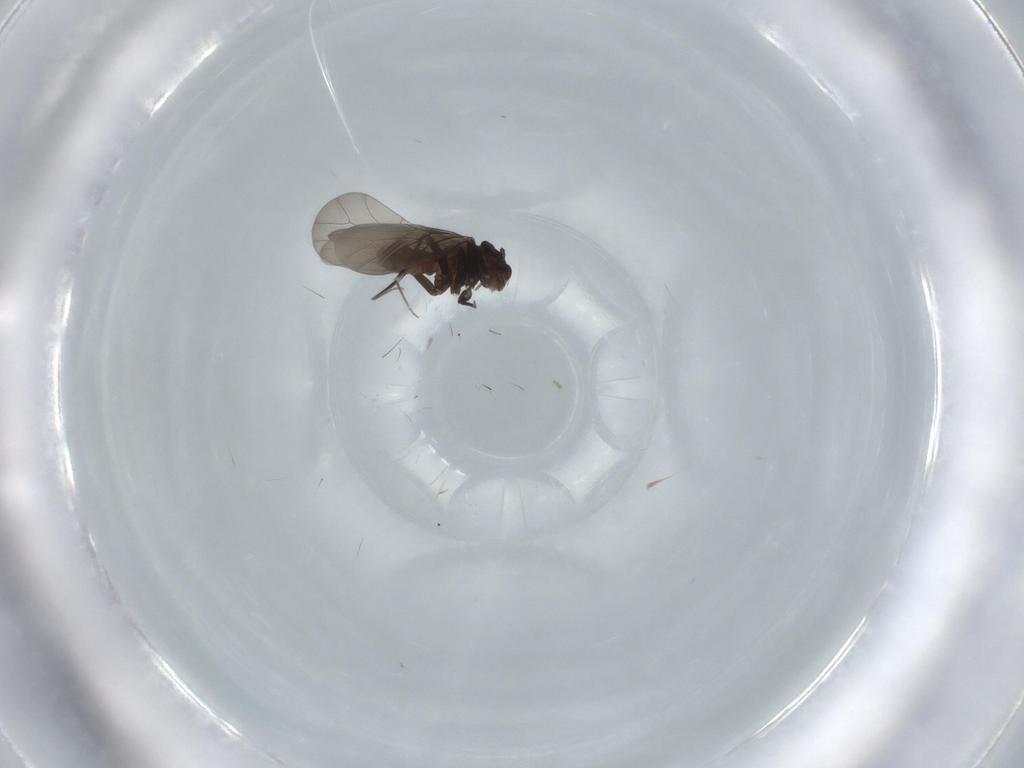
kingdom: Animalia
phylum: Arthropoda
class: Insecta
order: Psocodea
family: Lepidopsocidae
